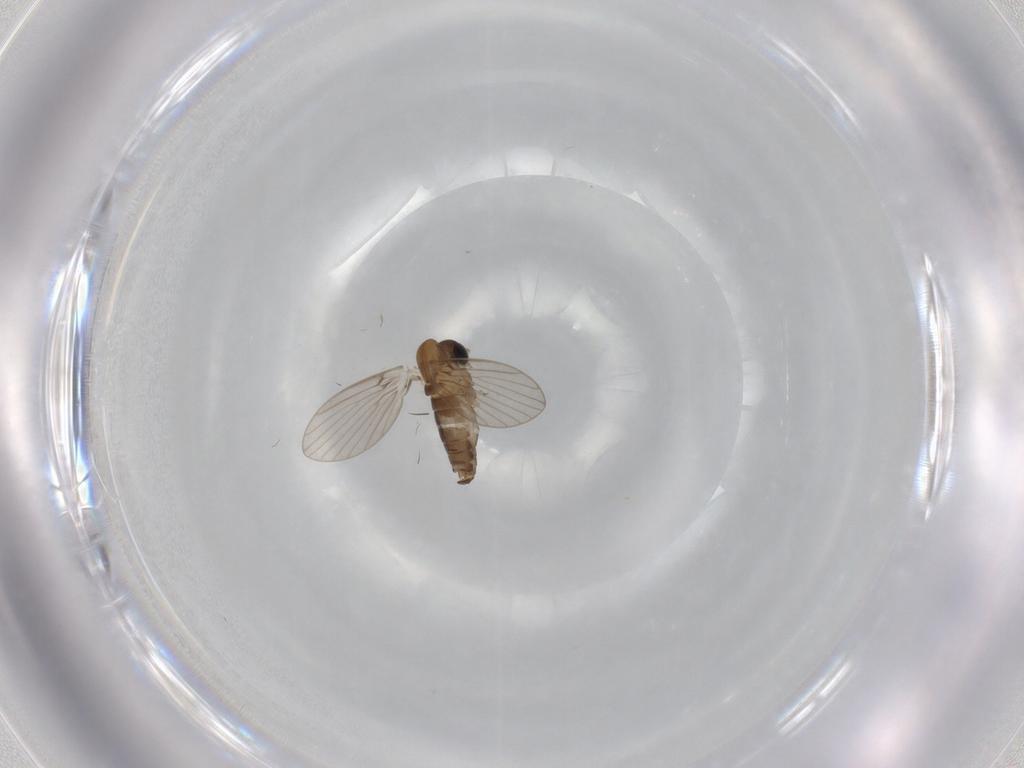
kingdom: Animalia
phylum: Arthropoda
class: Insecta
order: Diptera
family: Psychodidae
